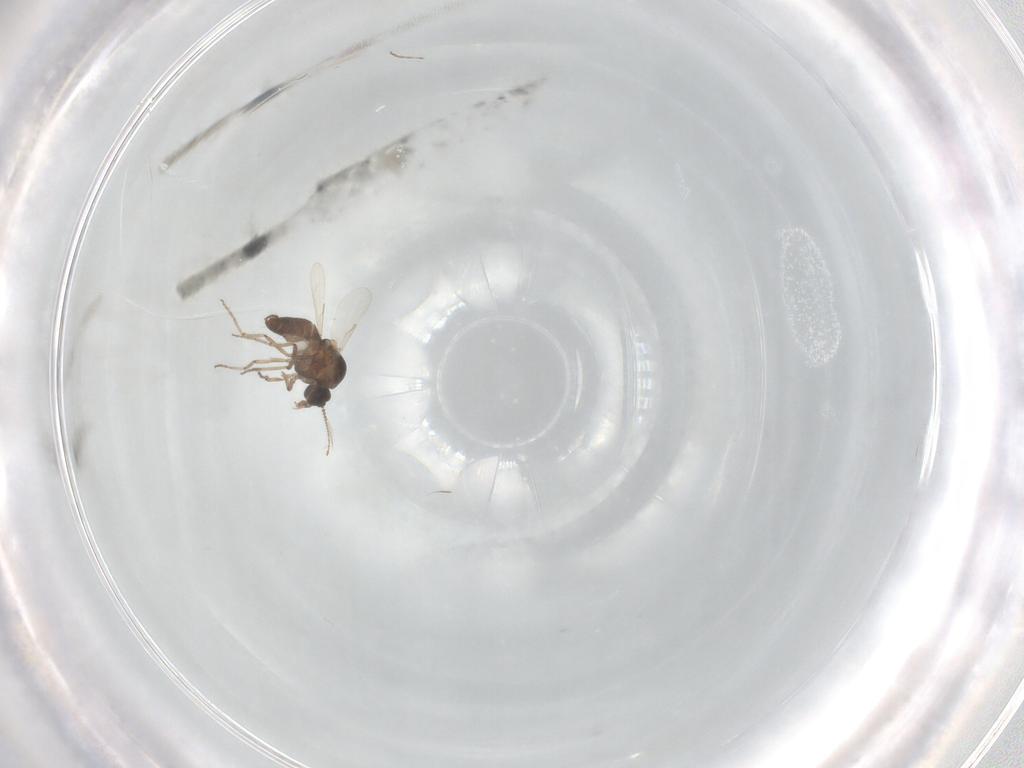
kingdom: Animalia
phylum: Arthropoda
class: Insecta
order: Diptera
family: Ceratopogonidae
